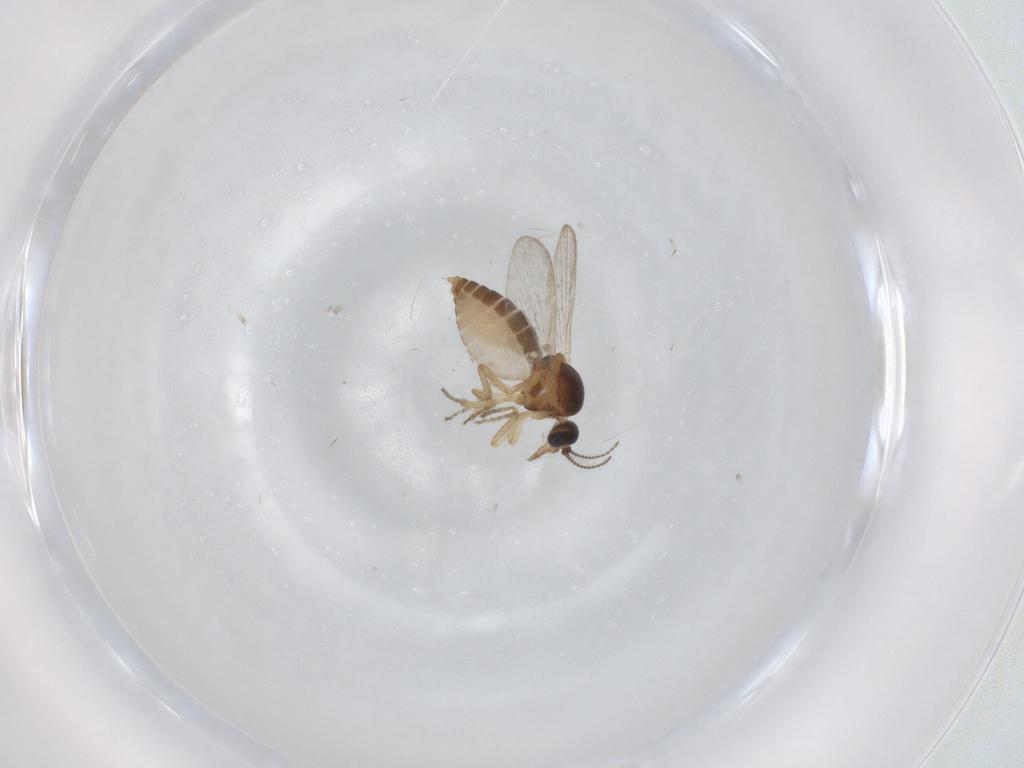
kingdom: Animalia
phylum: Arthropoda
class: Insecta
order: Diptera
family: Ceratopogonidae
